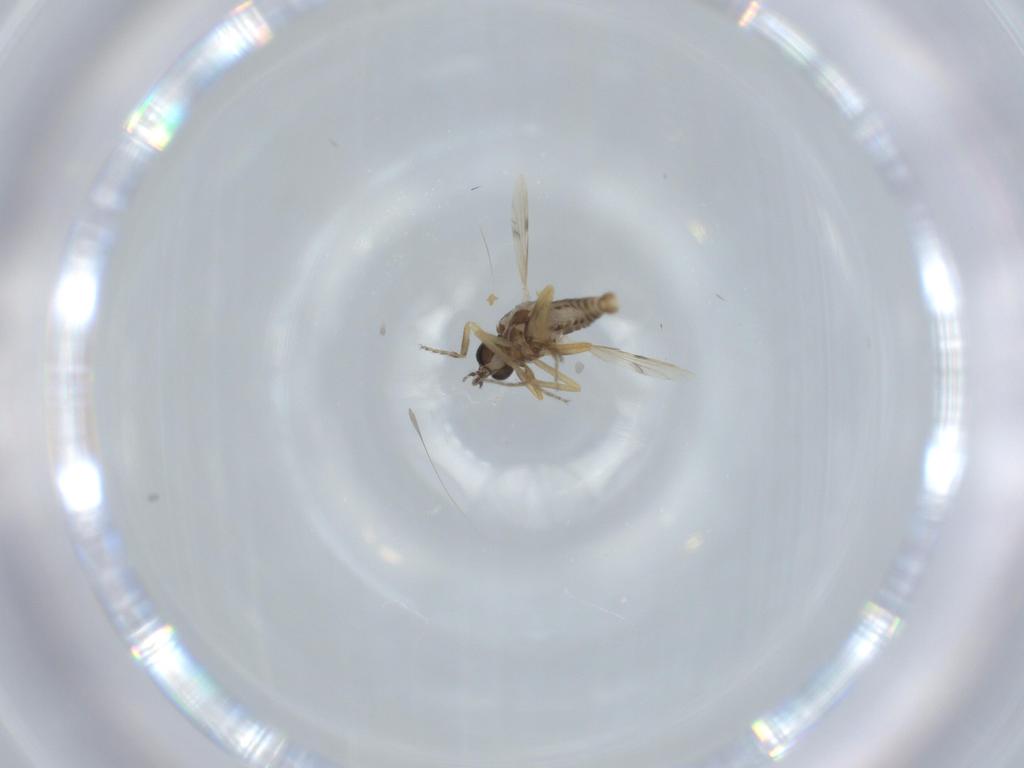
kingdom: Animalia
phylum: Arthropoda
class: Insecta
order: Diptera
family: Ceratopogonidae
